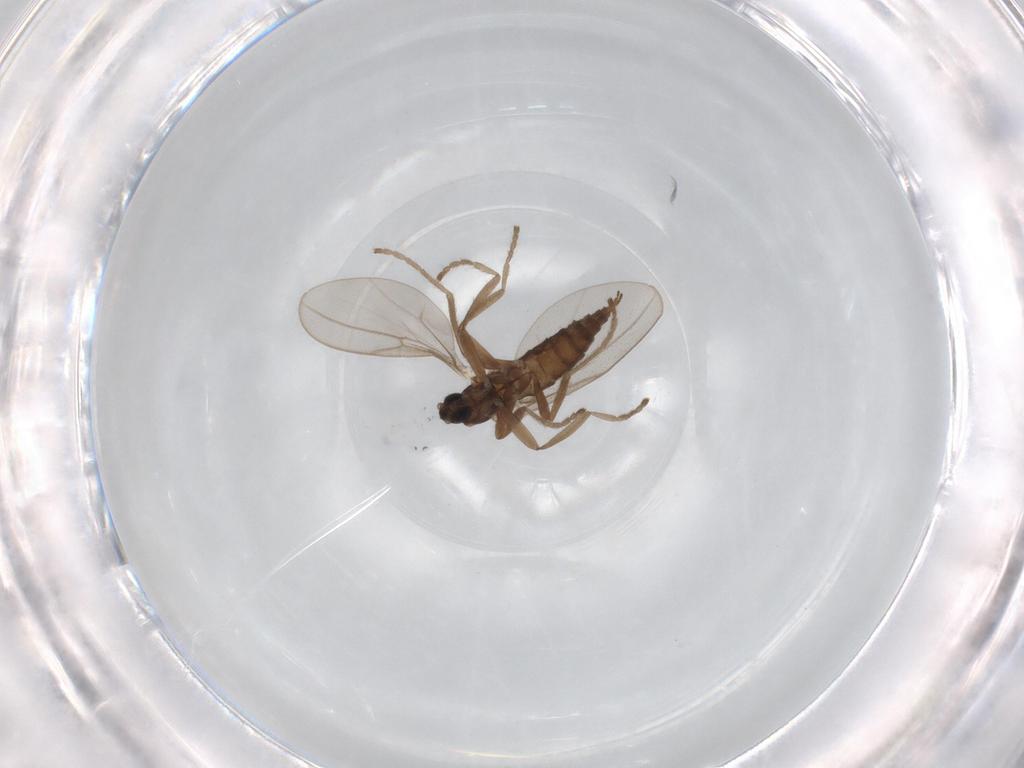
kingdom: Animalia
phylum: Arthropoda
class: Insecta
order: Diptera
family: Cecidomyiidae
